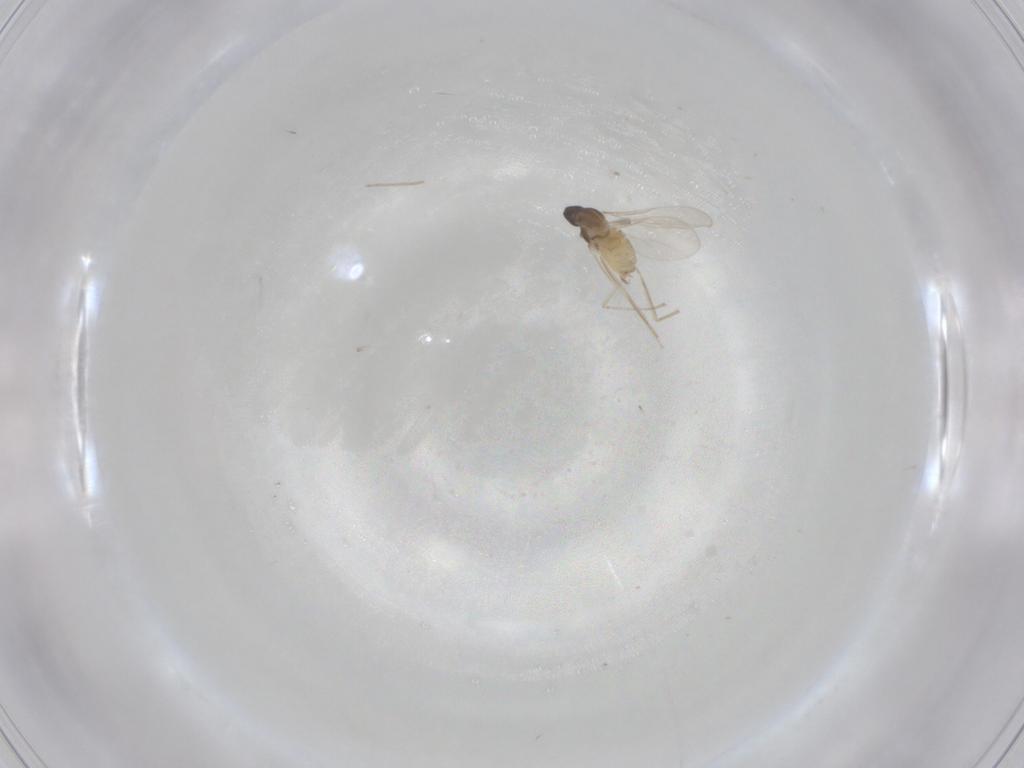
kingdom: Animalia
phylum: Arthropoda
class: Insecta
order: Diptera
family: Cecidomyiidae
